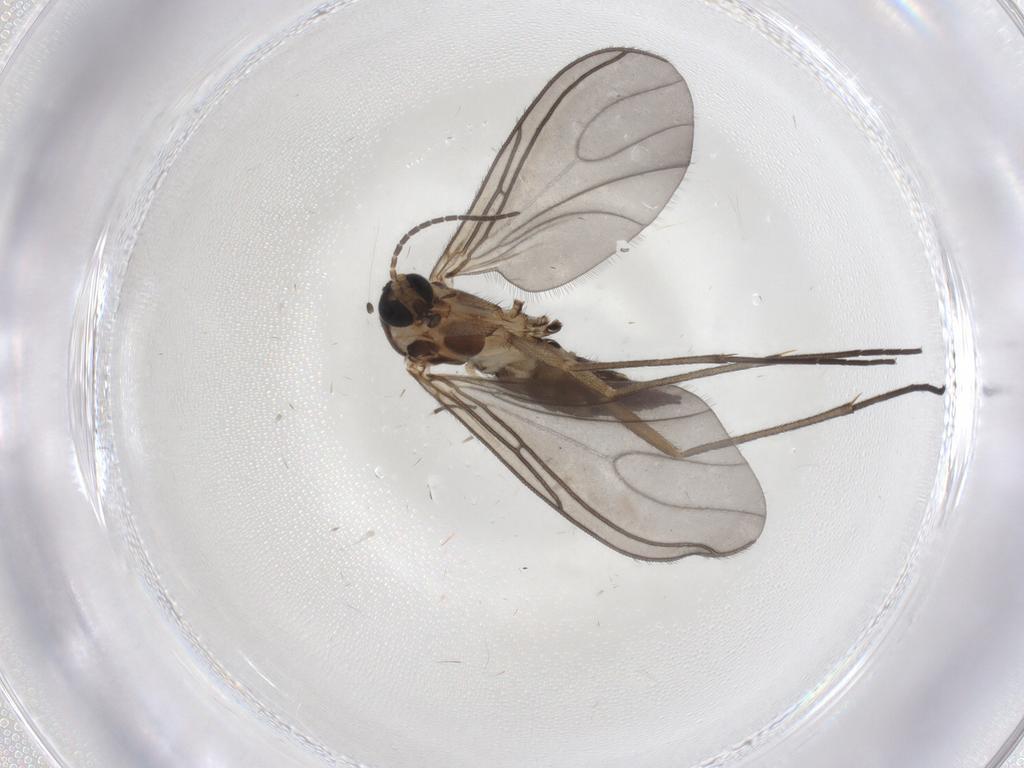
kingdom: Animalia
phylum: Arthropoda
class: Insecta
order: Diptera
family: Sciaridae
